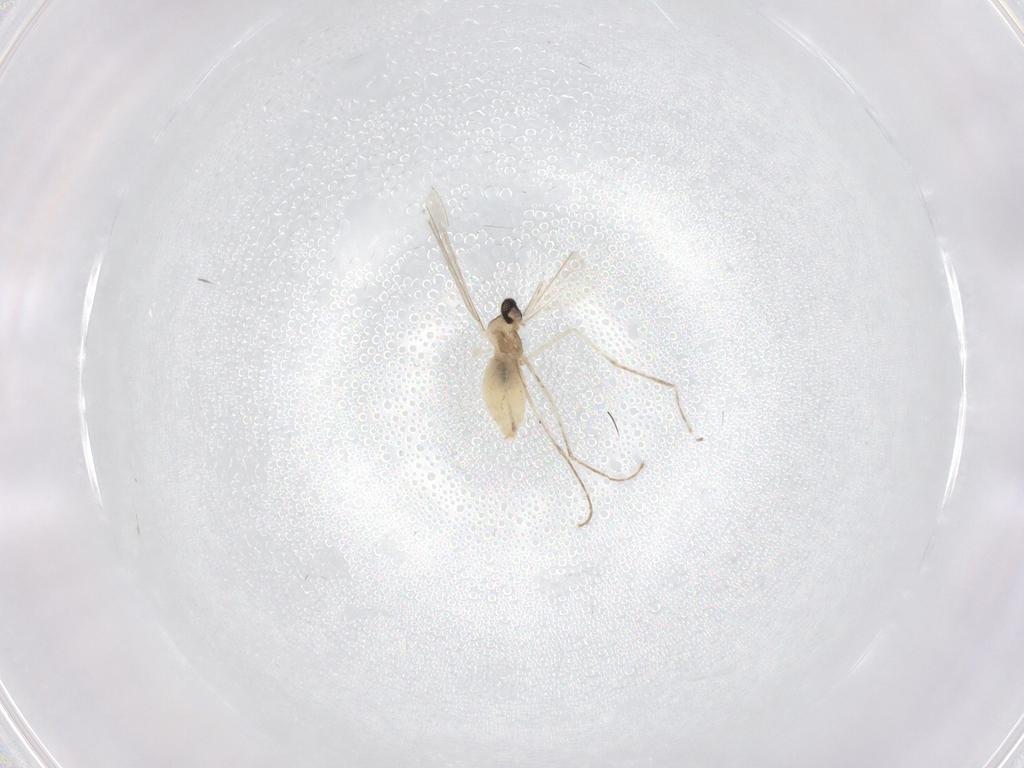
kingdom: Animalia
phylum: Arthropoda
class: Insecta
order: Diptera
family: Cecidomyiidae
